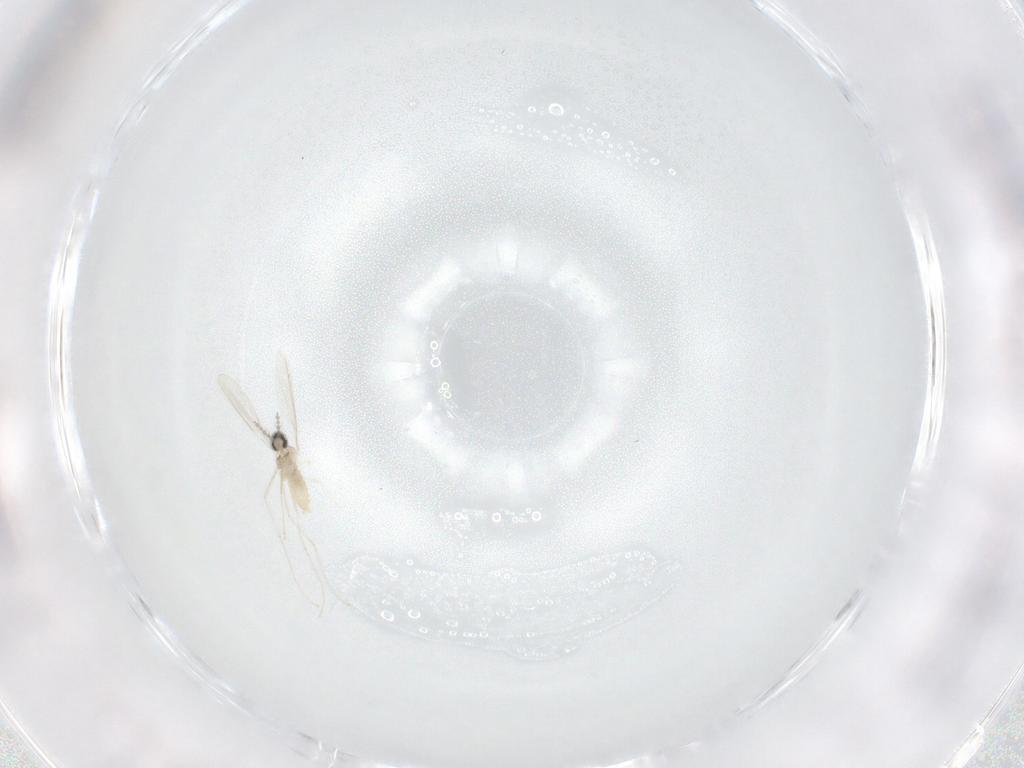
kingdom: Animalia
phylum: Arthropoda
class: Insecta
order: Diptera
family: Cecidomyiidae
